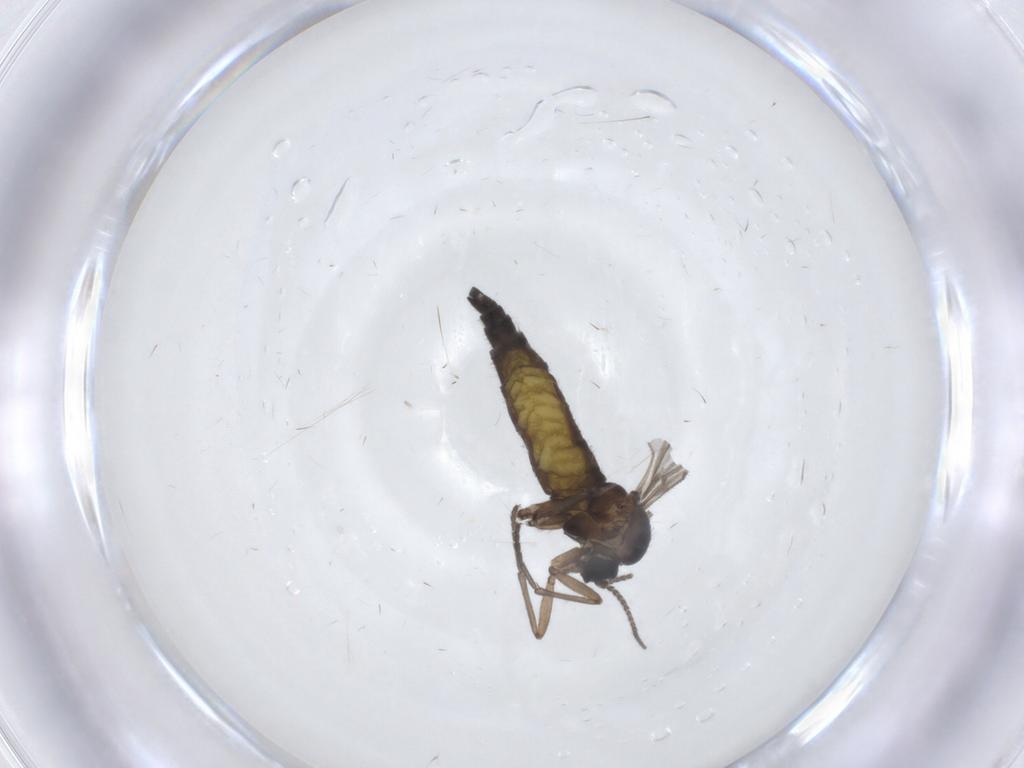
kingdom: Animalia
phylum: Arthropoda
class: Insecta
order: Diptera
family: Sciaridae
